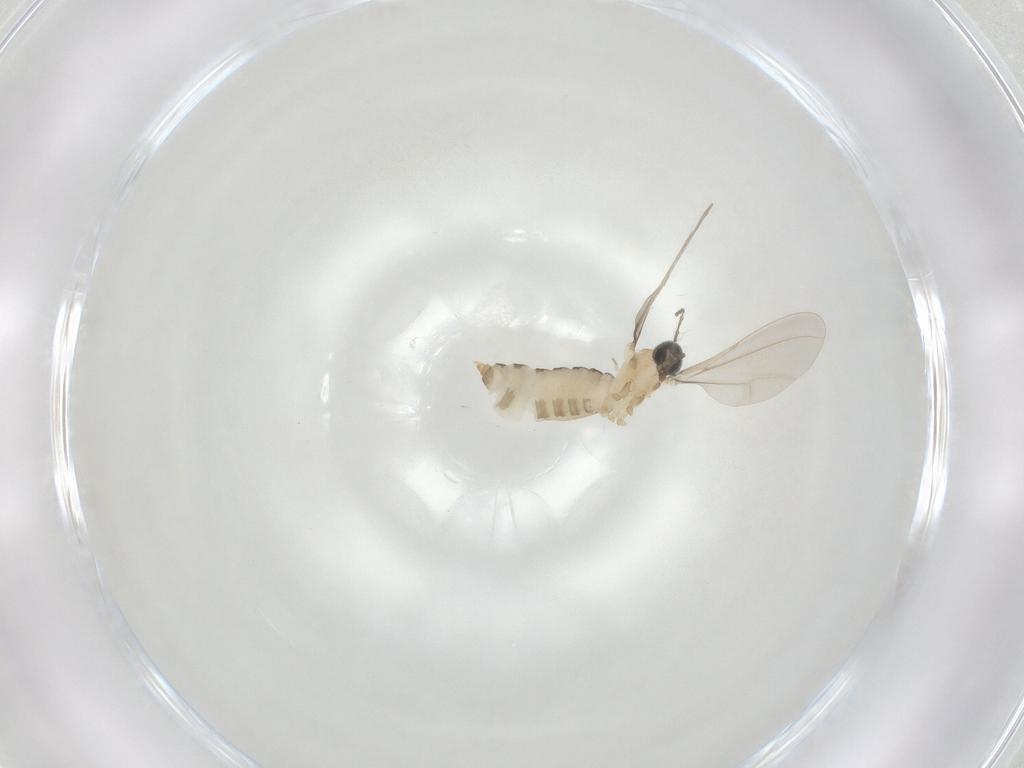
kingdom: Animalia
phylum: Arthropoda
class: Insecta
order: Diptera
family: Cecidomyiidae
